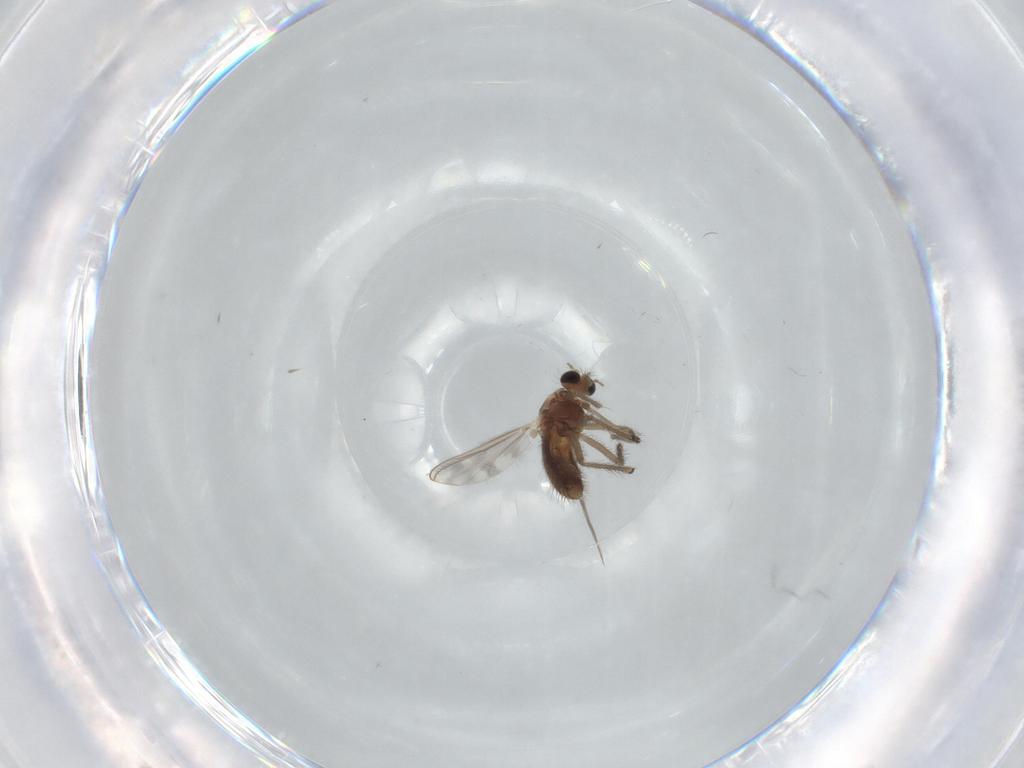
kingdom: Animalia
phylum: Arthropoda
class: Insecta
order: Diptera
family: Chironomidae
